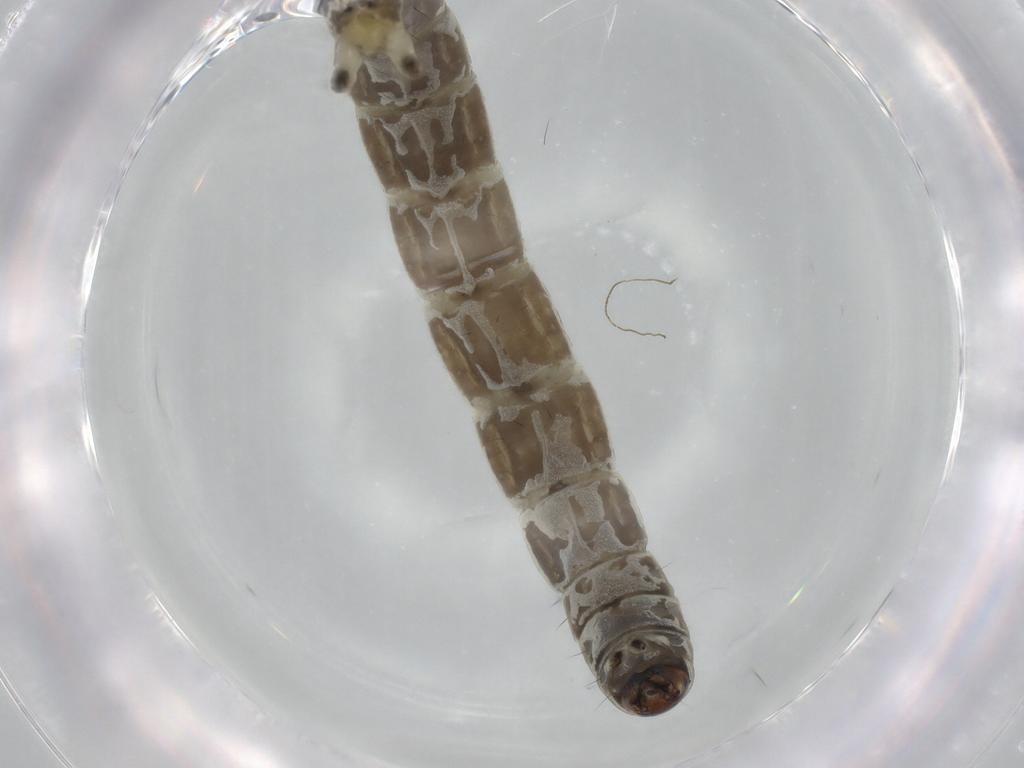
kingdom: Animalia
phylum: Arthropoda
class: Insecta
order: Diptera
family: Chironomidae
